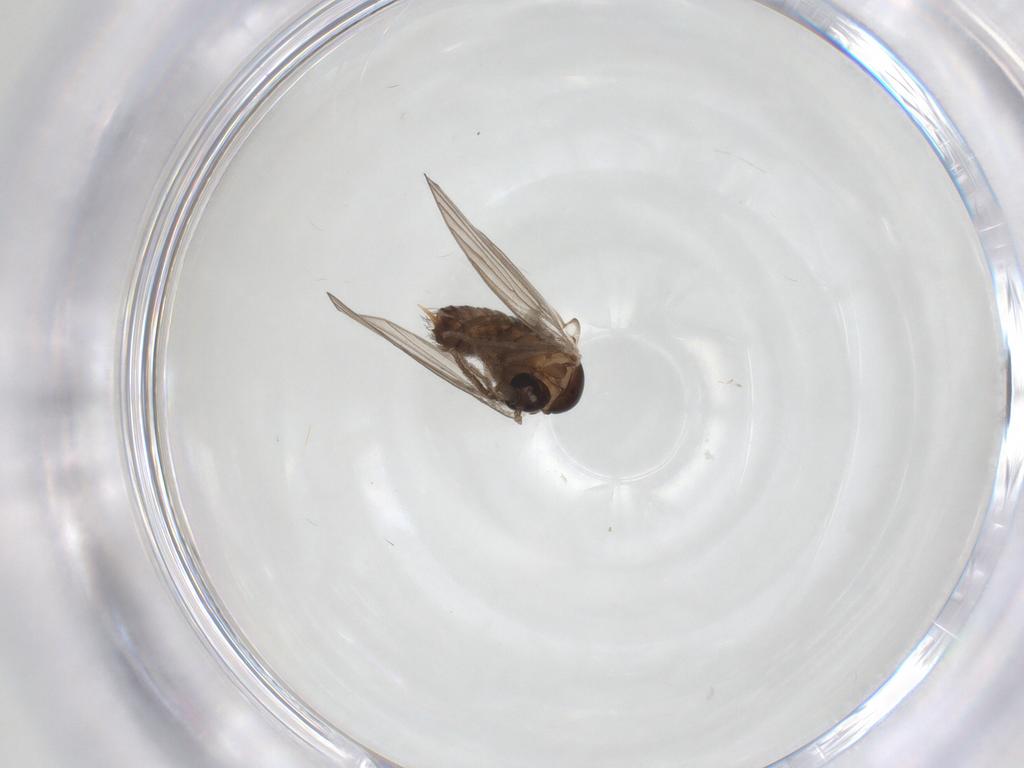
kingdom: Animalia
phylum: Arthropoda
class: Insecta
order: Diptera
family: Psychodidae
